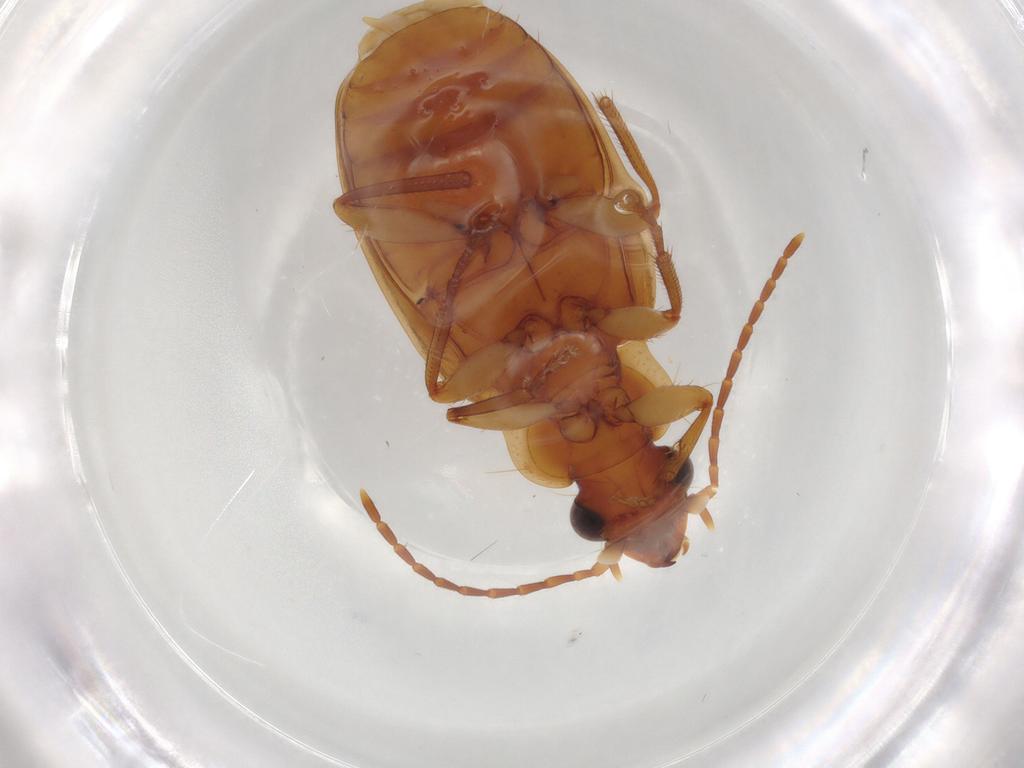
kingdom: Animalia
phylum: Arthropoda
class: Insecta
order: Coleoptera
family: Carabidae
